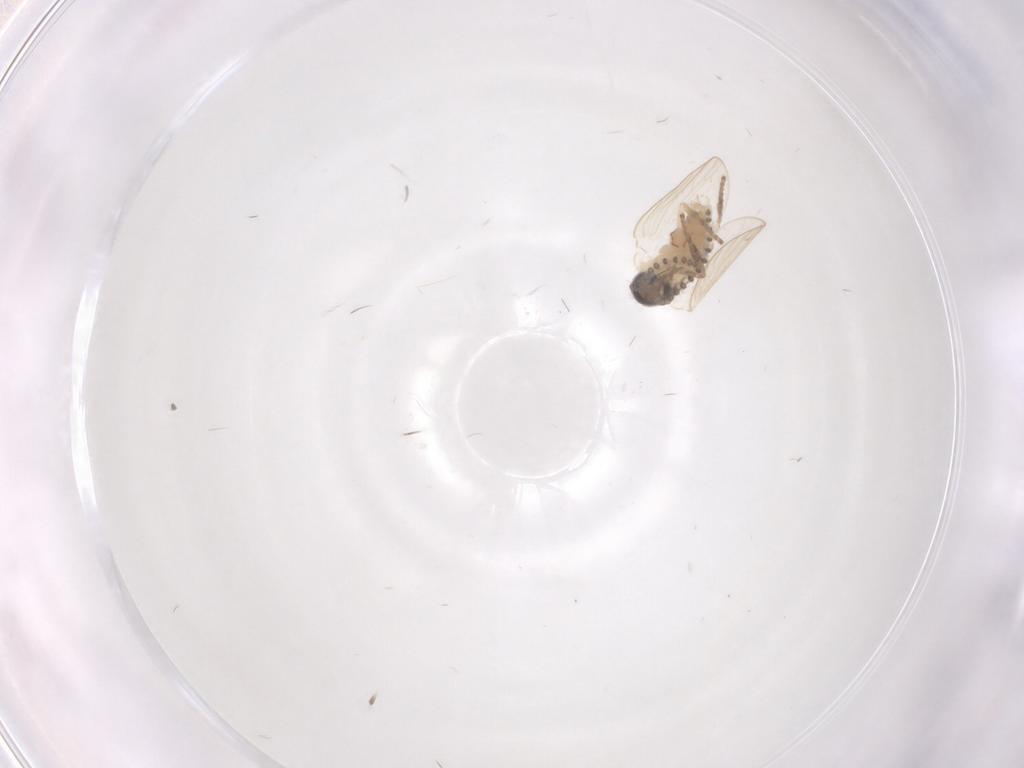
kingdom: Animalia
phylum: Arthropoda
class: Insecta
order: Diptera
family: Psychodidae
